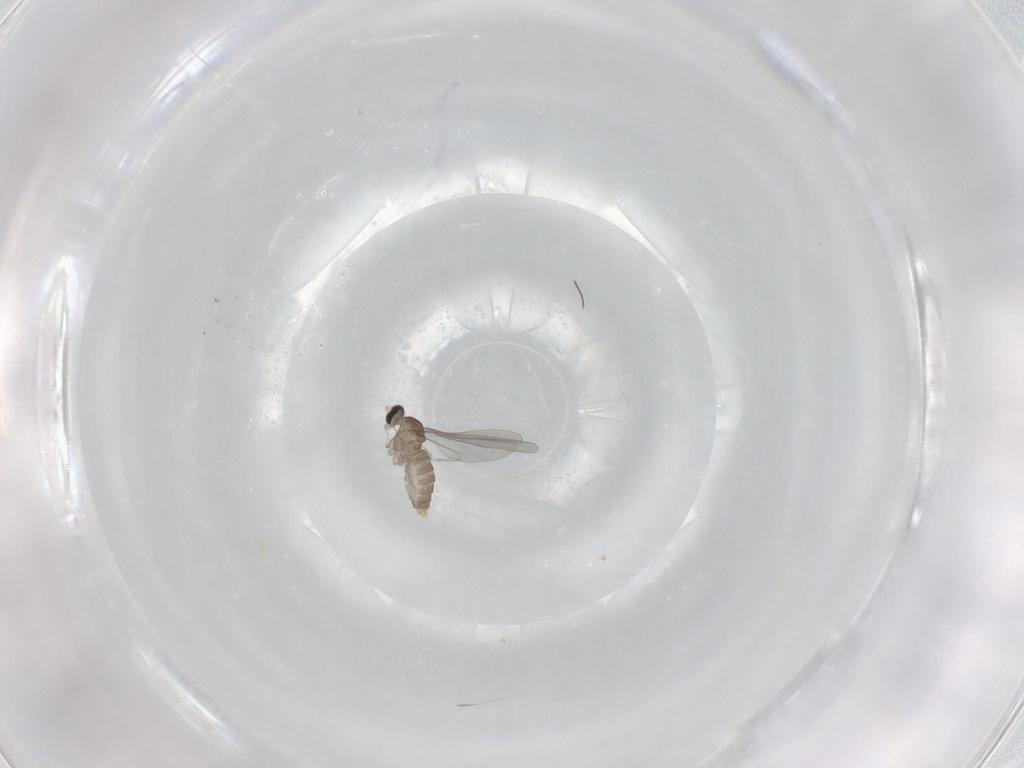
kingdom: Animalia
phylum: Arthropoda
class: Insecta
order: Diptera
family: Cecidomyiidae
